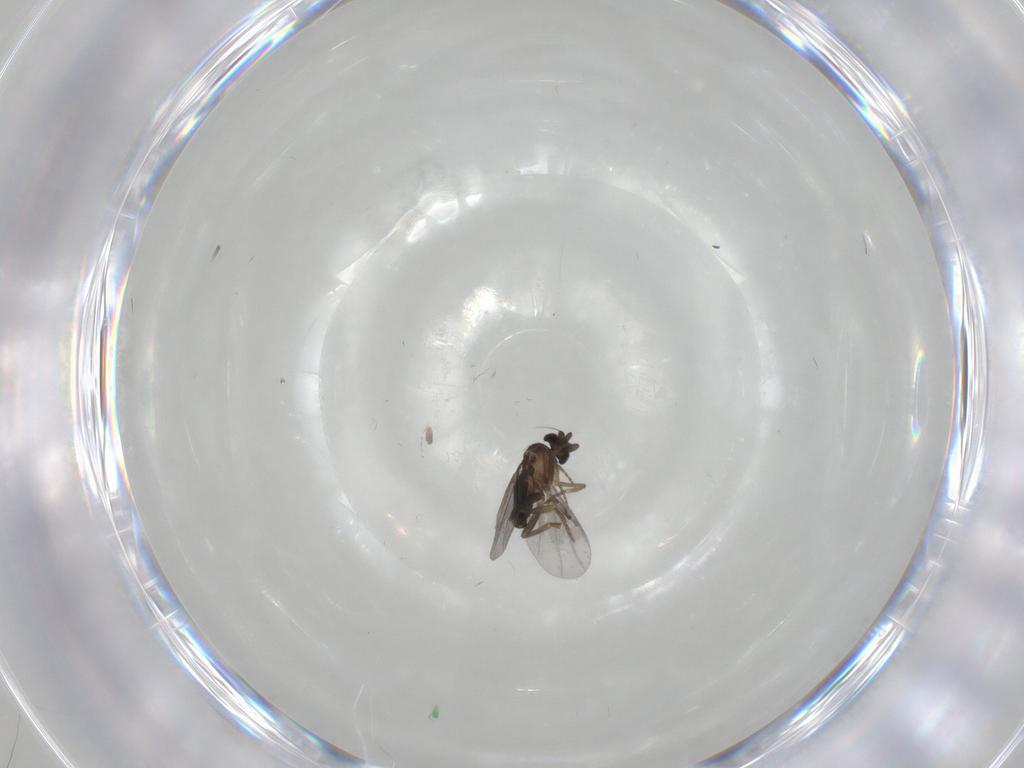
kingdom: Animalia
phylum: Arthropoda
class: Insecta
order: Diptera
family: Phoridae
